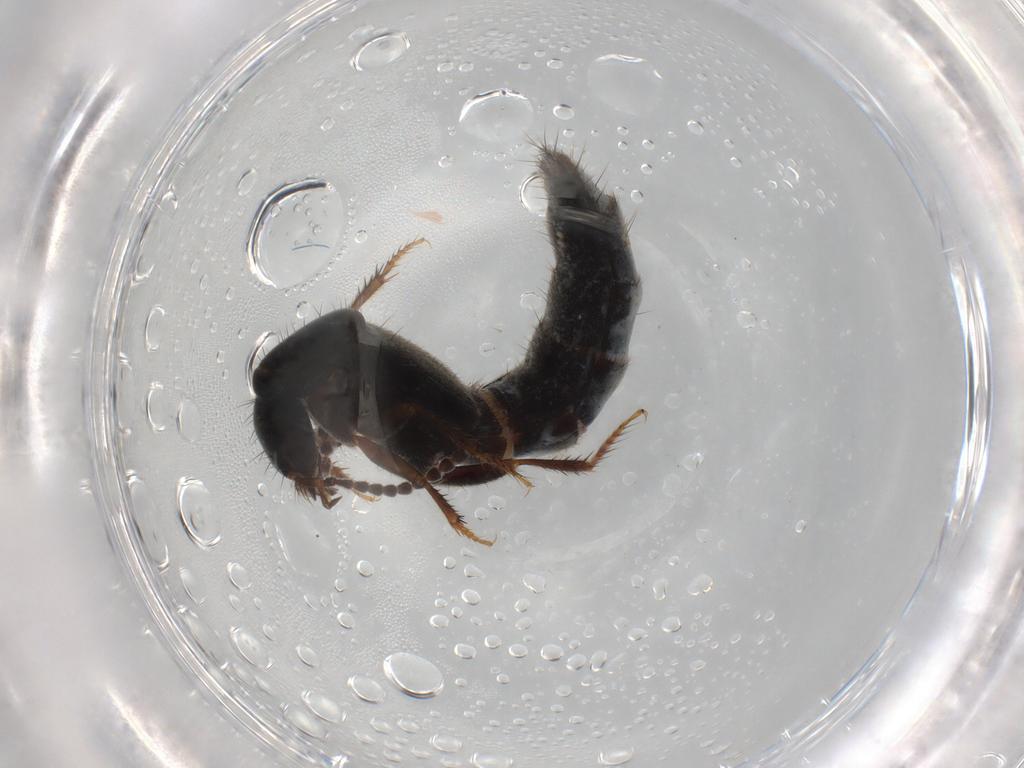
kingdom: Animalia
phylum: Arthropoda
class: Insecta
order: Coleoptera
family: Staphylinidae
